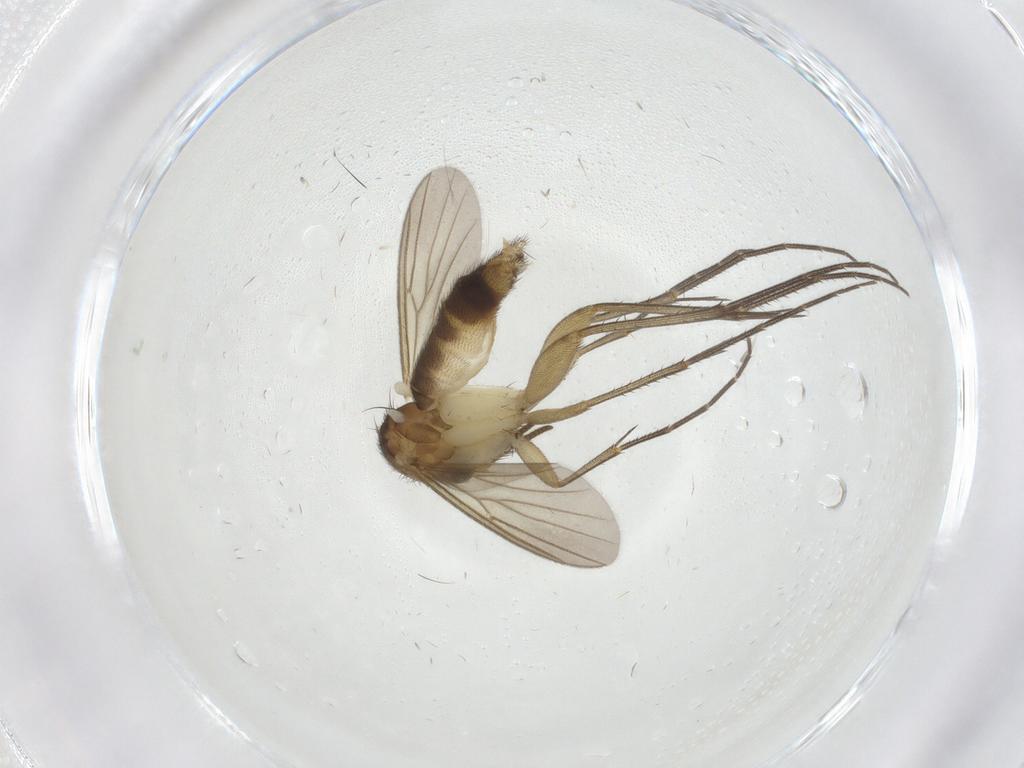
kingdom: Animalia
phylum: Arthropoda
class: Insecta
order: Diptera
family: Mycetophilidae
